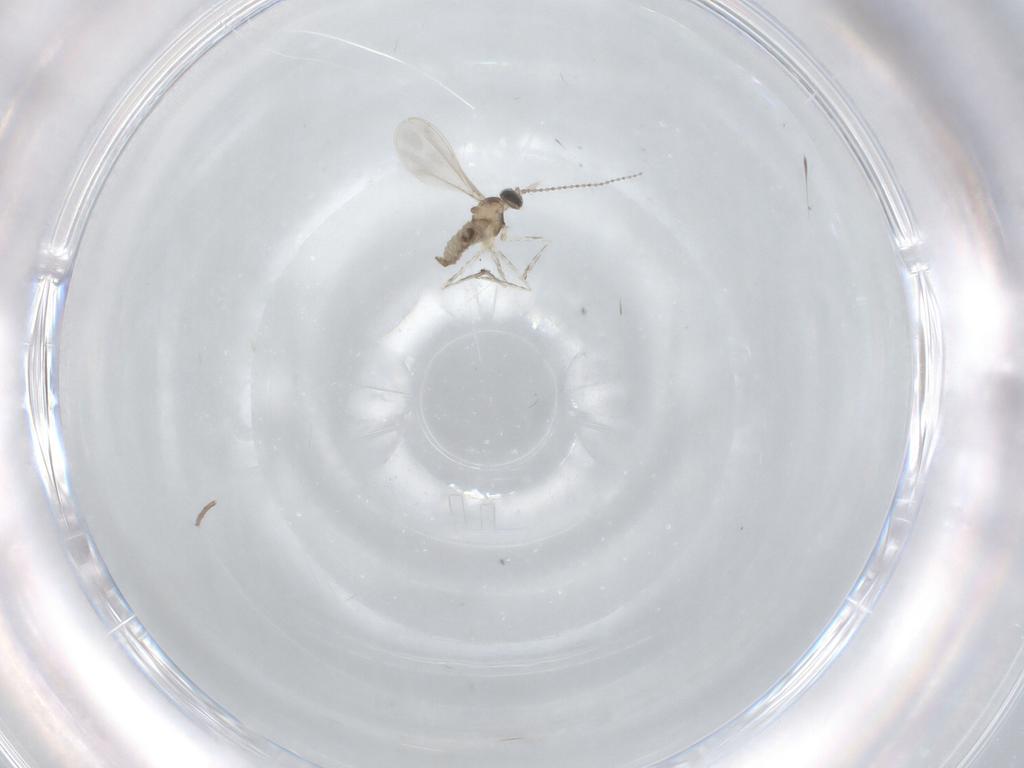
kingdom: Animalia
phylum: Arthropoda
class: Insecta
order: Diptera
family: Cecidomyiidae
